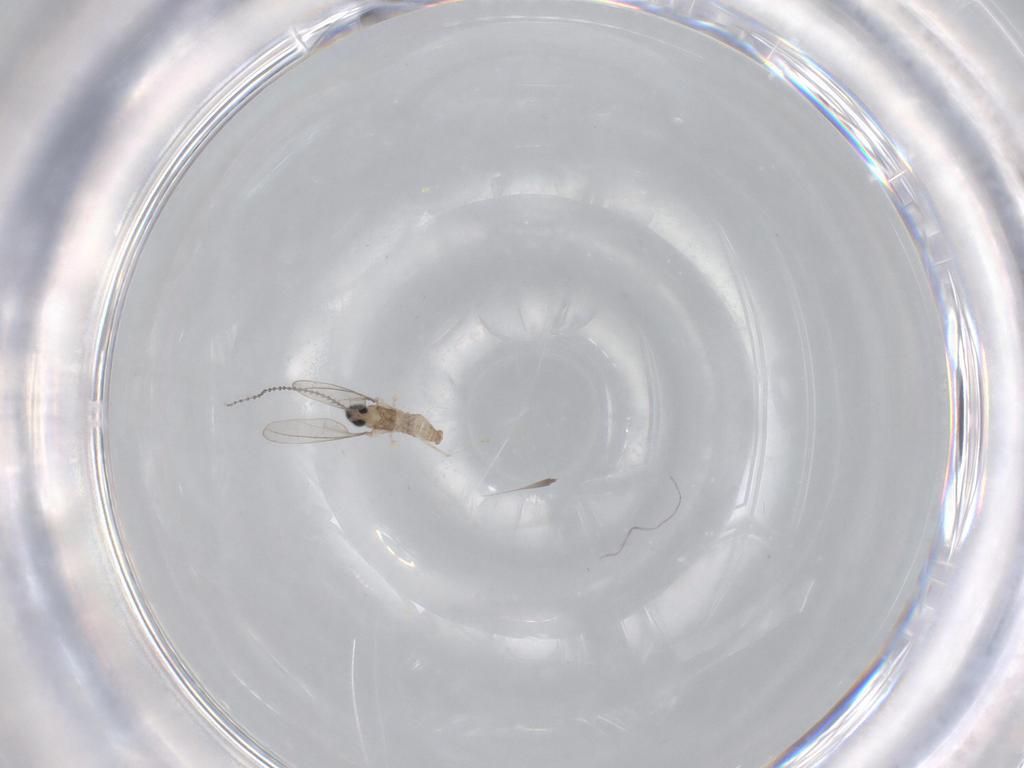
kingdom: Animalia
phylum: Arthropoda
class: Insecta
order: Diptera
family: Cecidomyiidae
